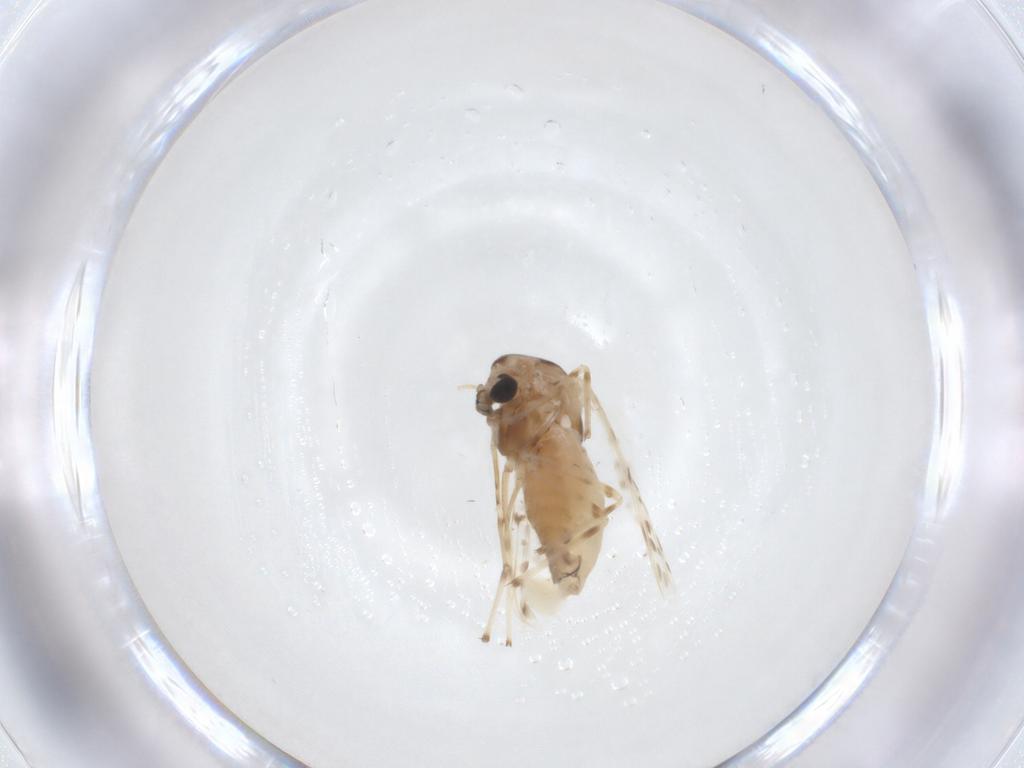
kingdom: Animalia
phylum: Arthropoda
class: Insecta
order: Diptera
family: Chironomidae
